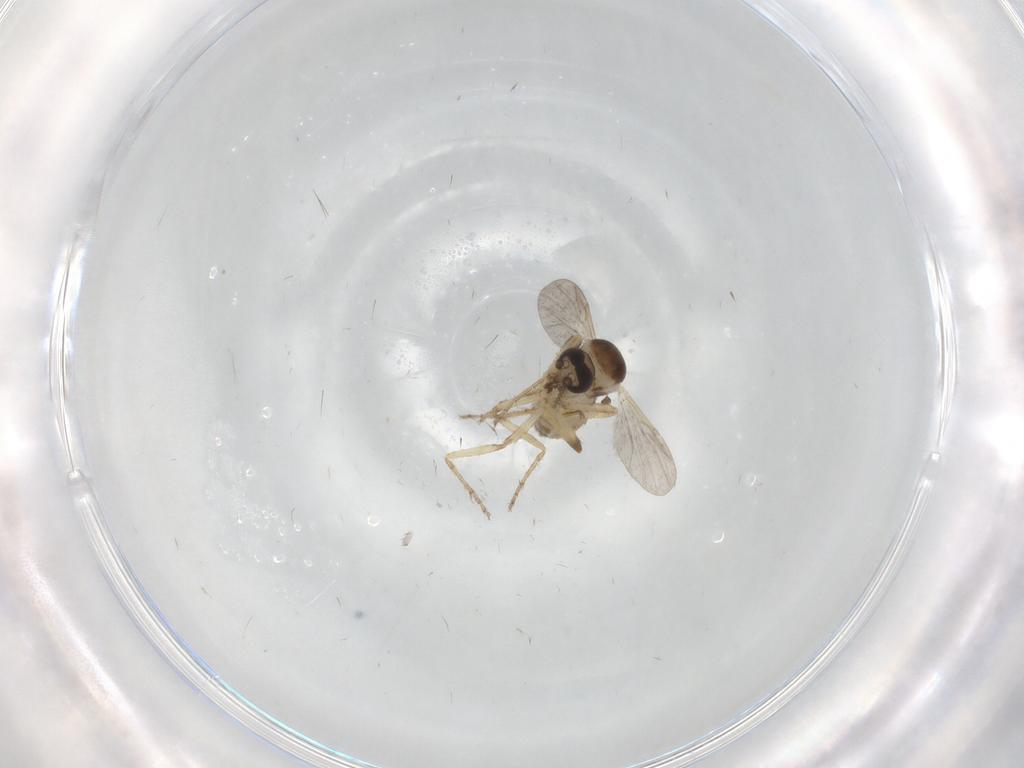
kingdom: Animalia
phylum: Arthropoda
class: Insecta
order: Diptera
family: Ceratopogonidae
